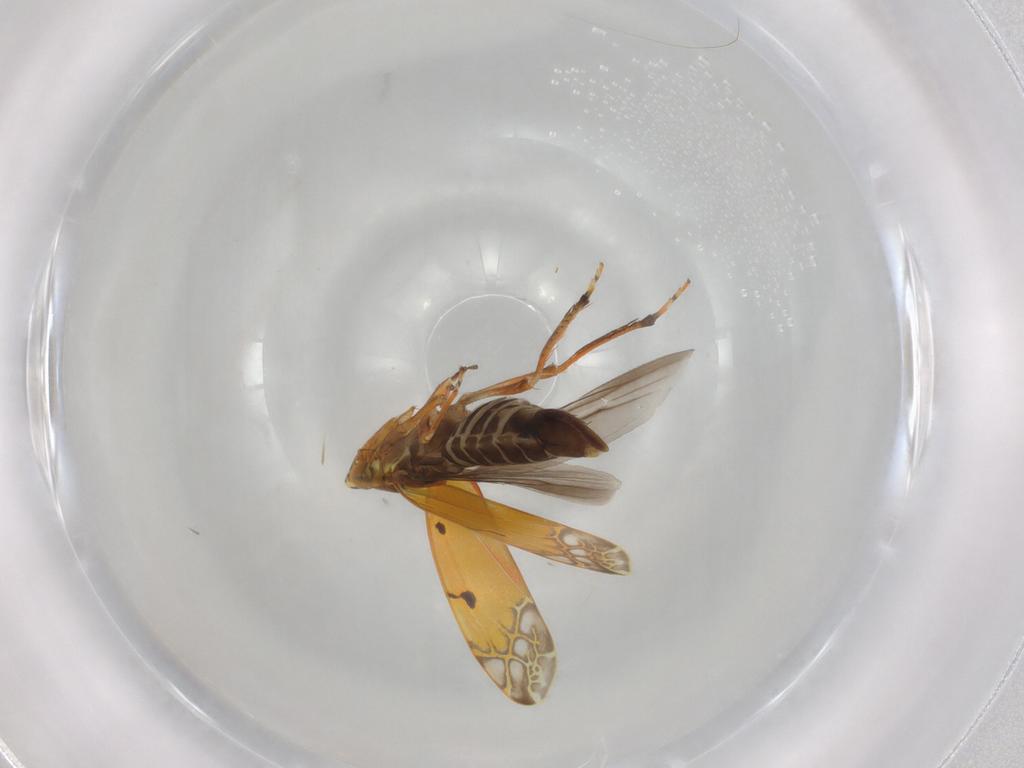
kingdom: Animalia
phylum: Arthropoda
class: Insecta
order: Hemiptera
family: Cicadellidae
